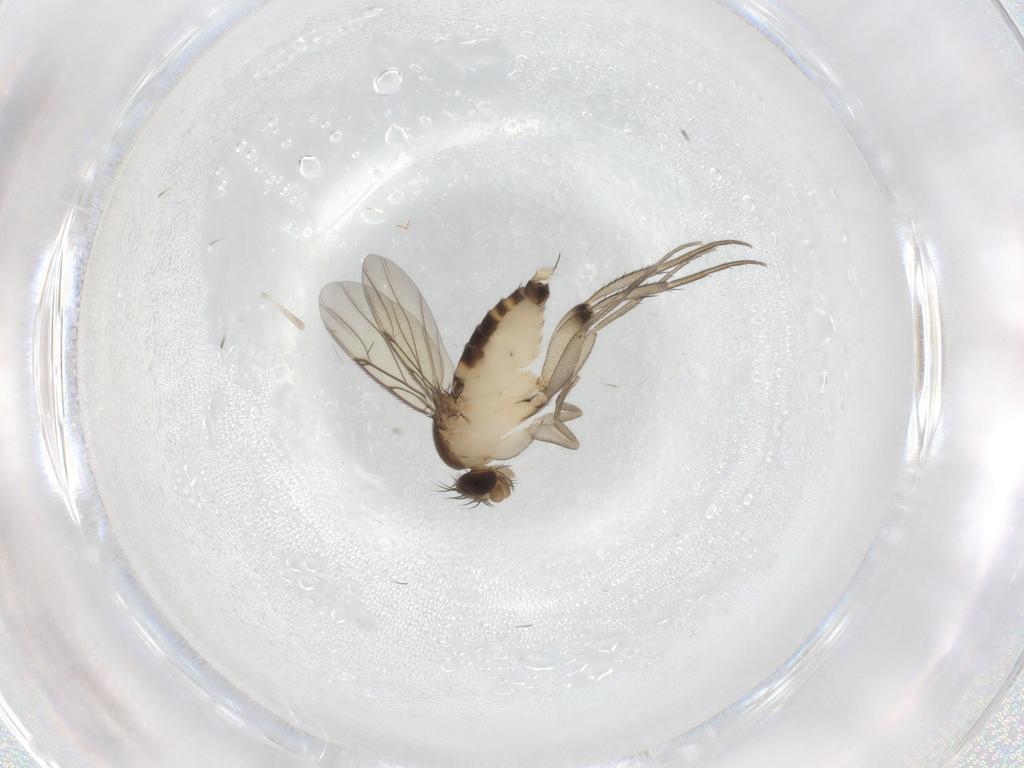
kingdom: Animalia
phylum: Arthropoda
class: Insecta
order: Diptera
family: Phoridae
